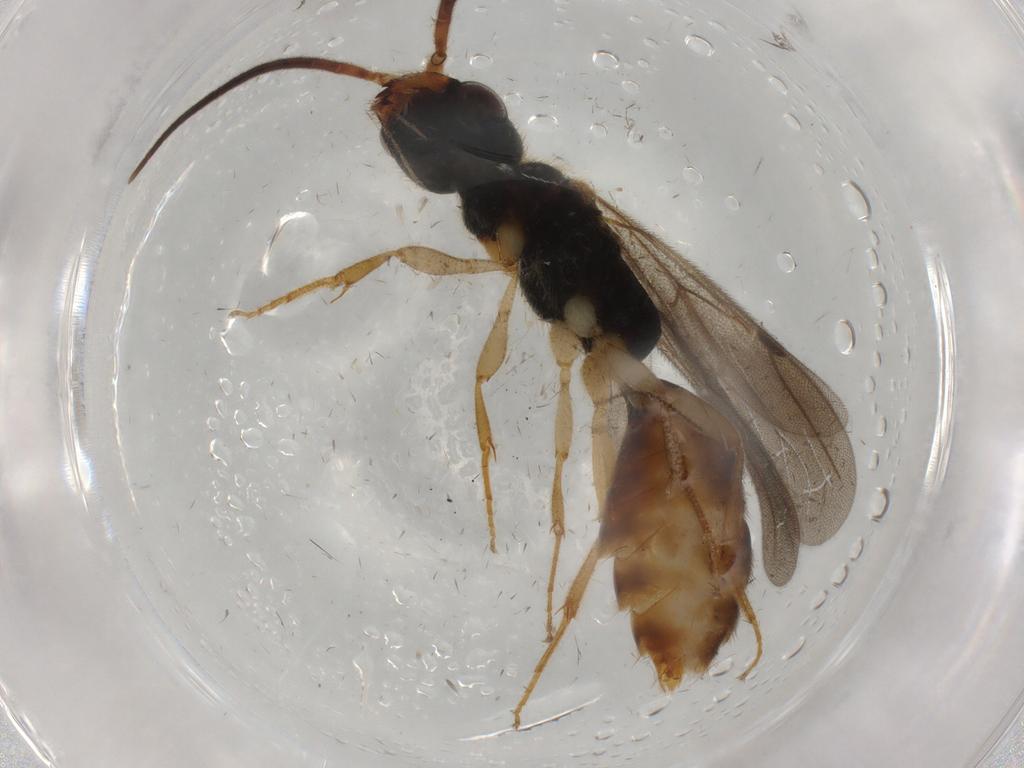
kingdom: Animalia
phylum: Arthropoda
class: Insecta
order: Hymenoptera
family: Bethylidae
